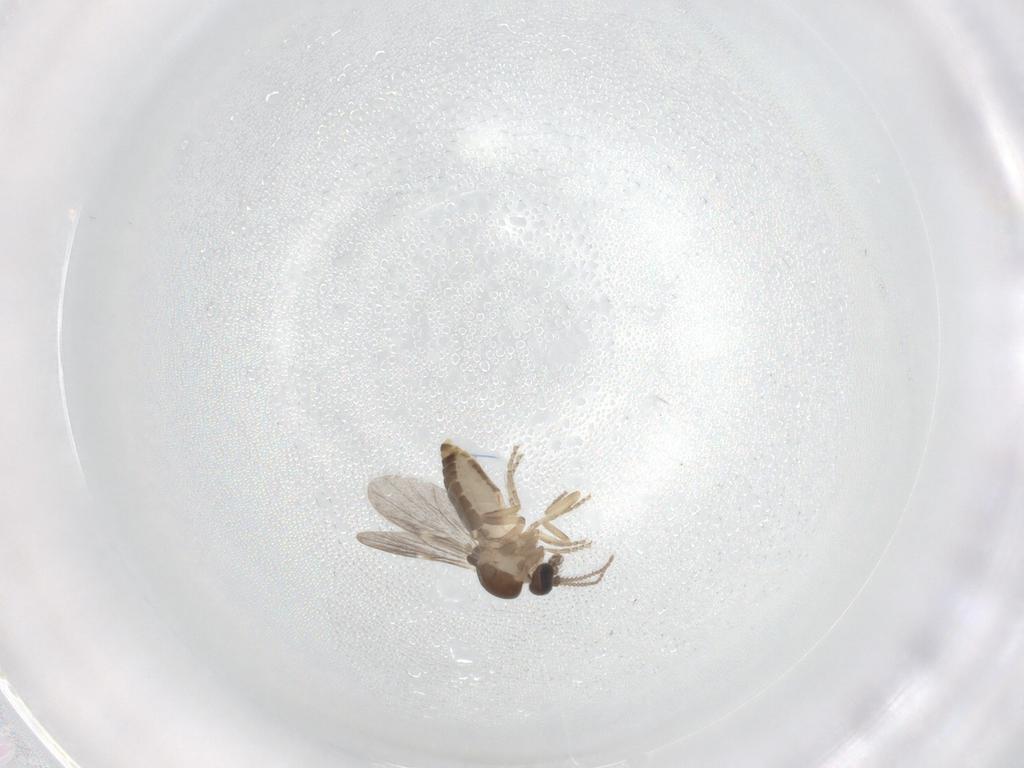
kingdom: Animalia
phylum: Arthropoda
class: Insecta
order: Diptera
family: Ceratopogonidae
